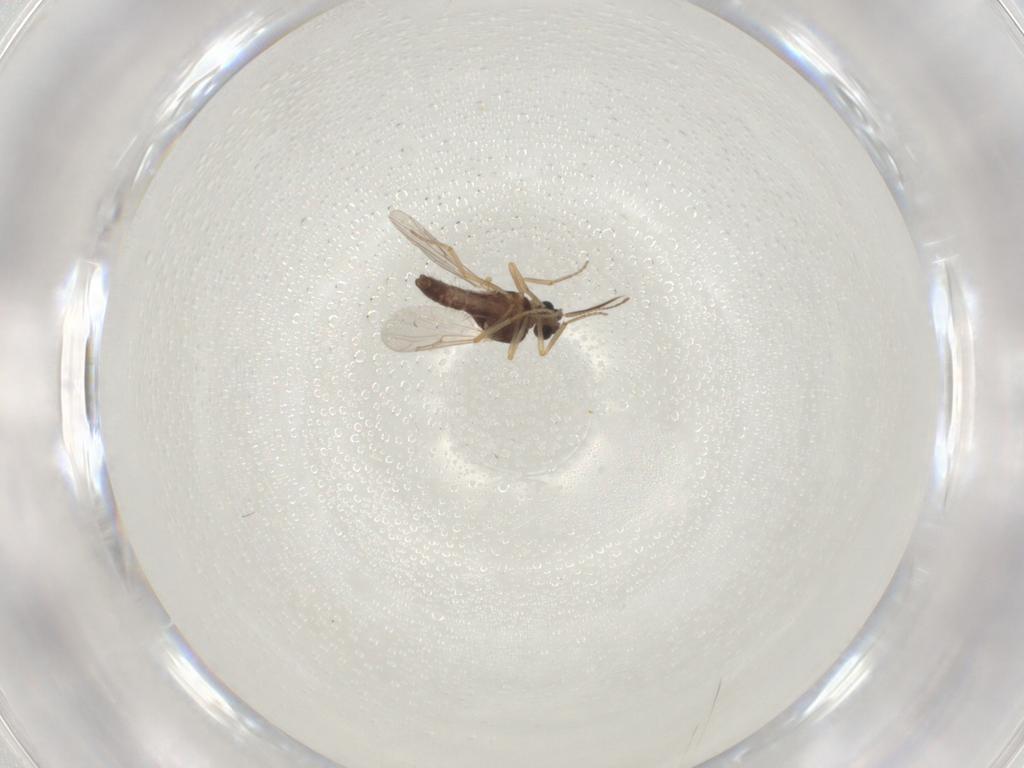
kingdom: Animalia
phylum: Arthropoda
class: Insecta
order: Diptera
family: Ceratopogonidae
